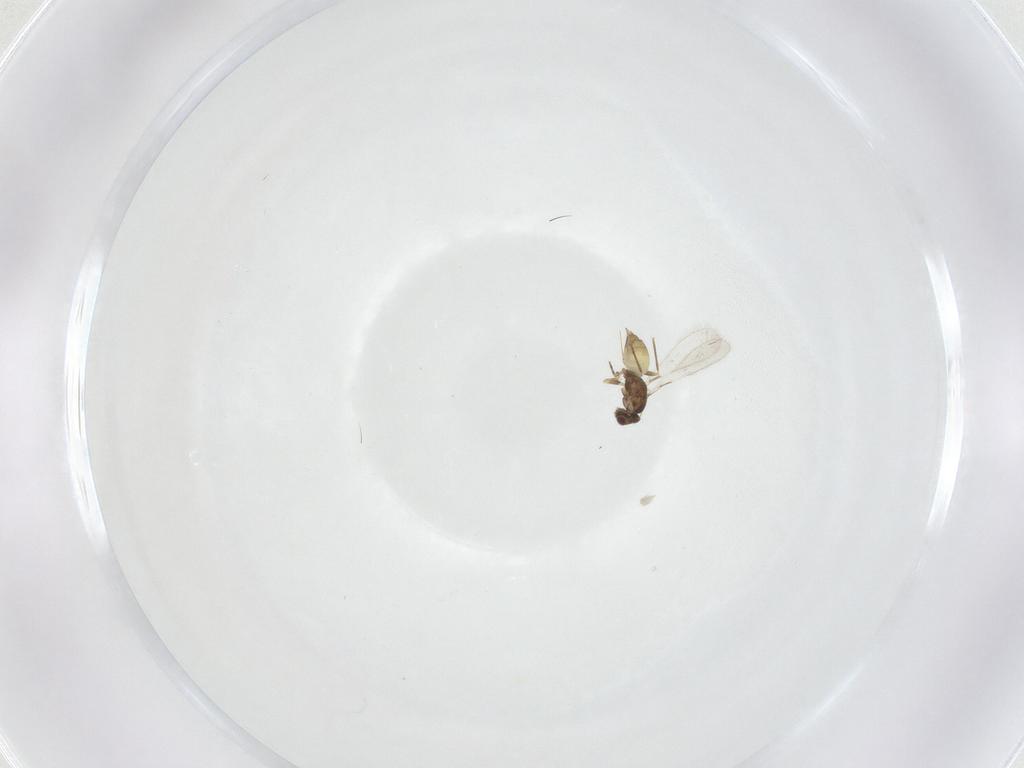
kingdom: Animalia
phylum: Arthropoda
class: Insecta
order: Hymenoptera
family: Mymaridae
